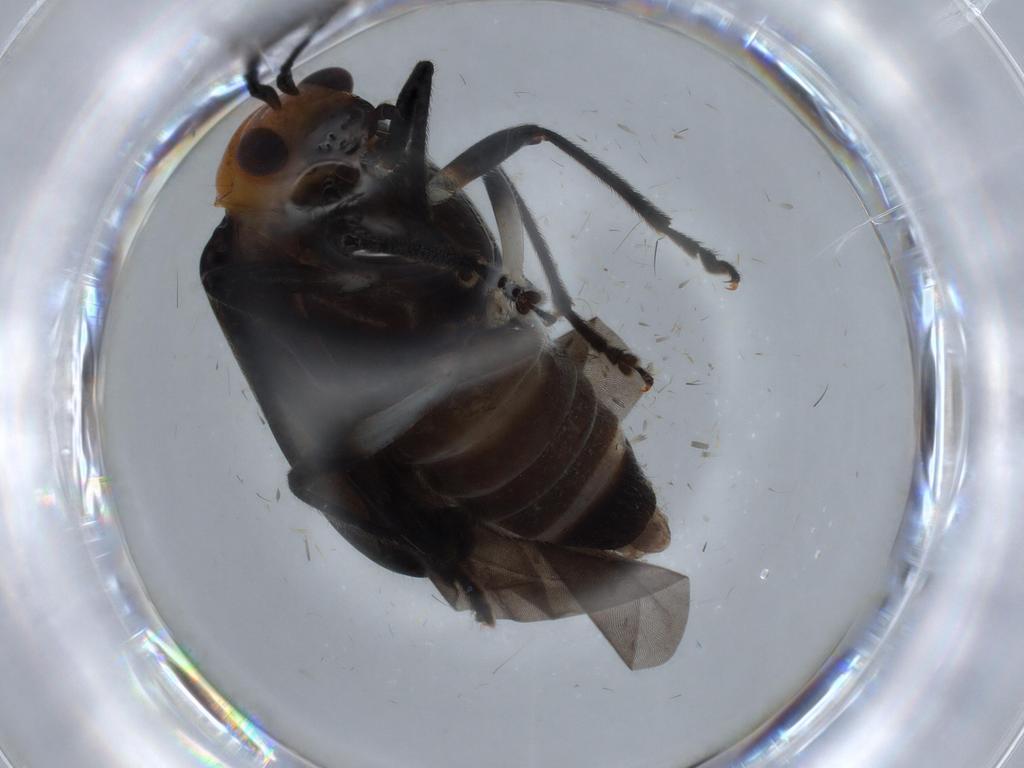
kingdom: Animalia
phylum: Arthropoda
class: Insecta
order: Coleoptera
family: Chrysomelidae
